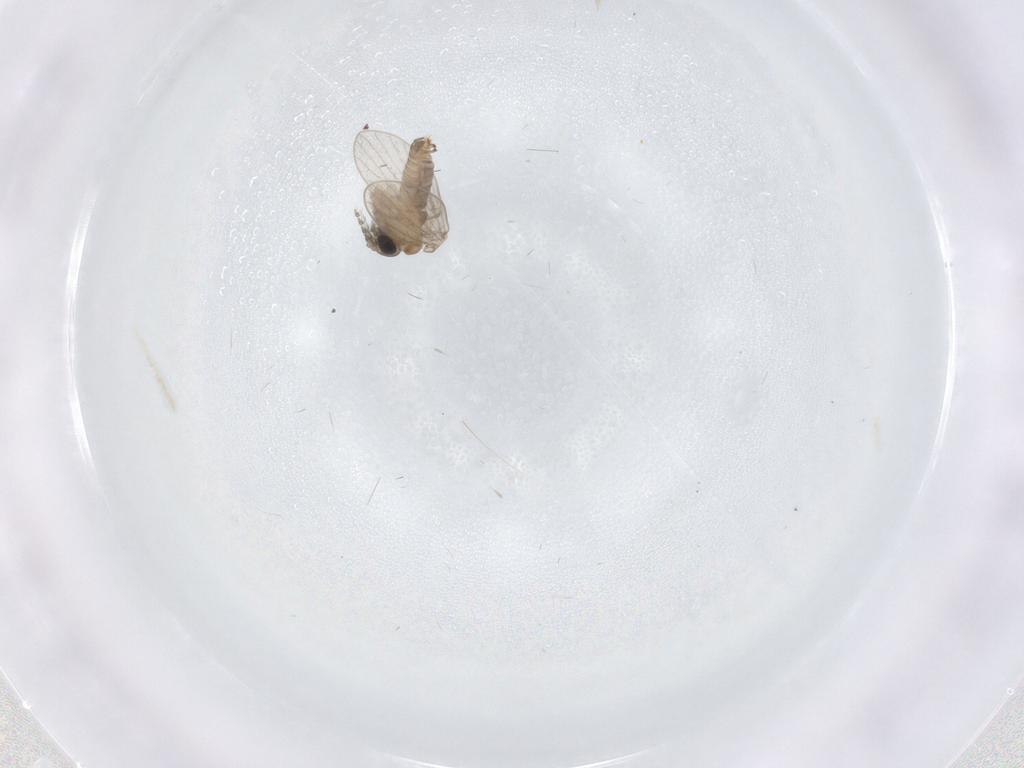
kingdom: Animalia
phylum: Arthropoda
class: Insecta
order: Diptera
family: Psychodidae
